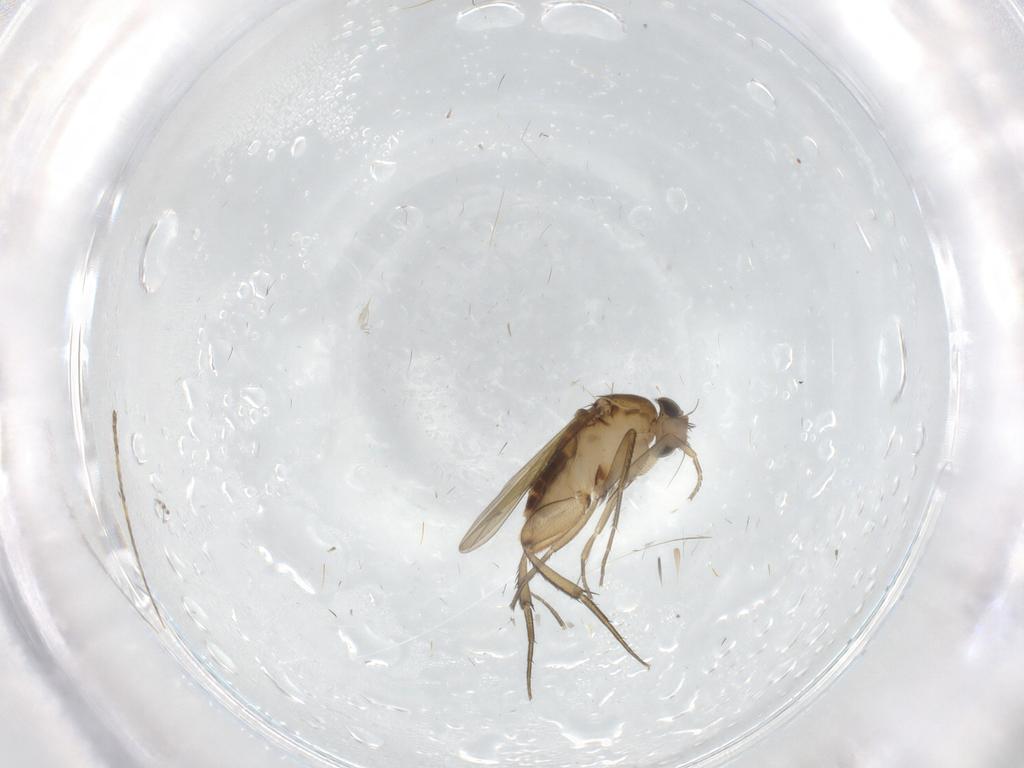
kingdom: Animalia
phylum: Arthropoda
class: Insecta
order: Diptera
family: Phoridae
